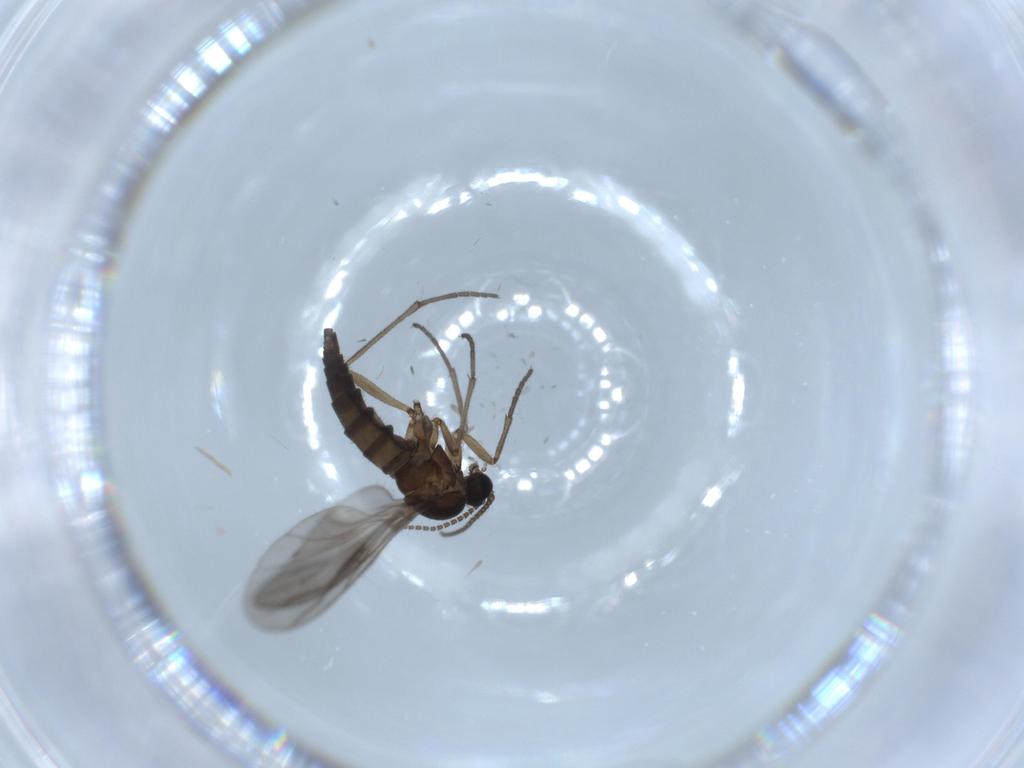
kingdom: Animalia
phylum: Arthropoda
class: Insecta
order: Diptera
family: Sciaridae
